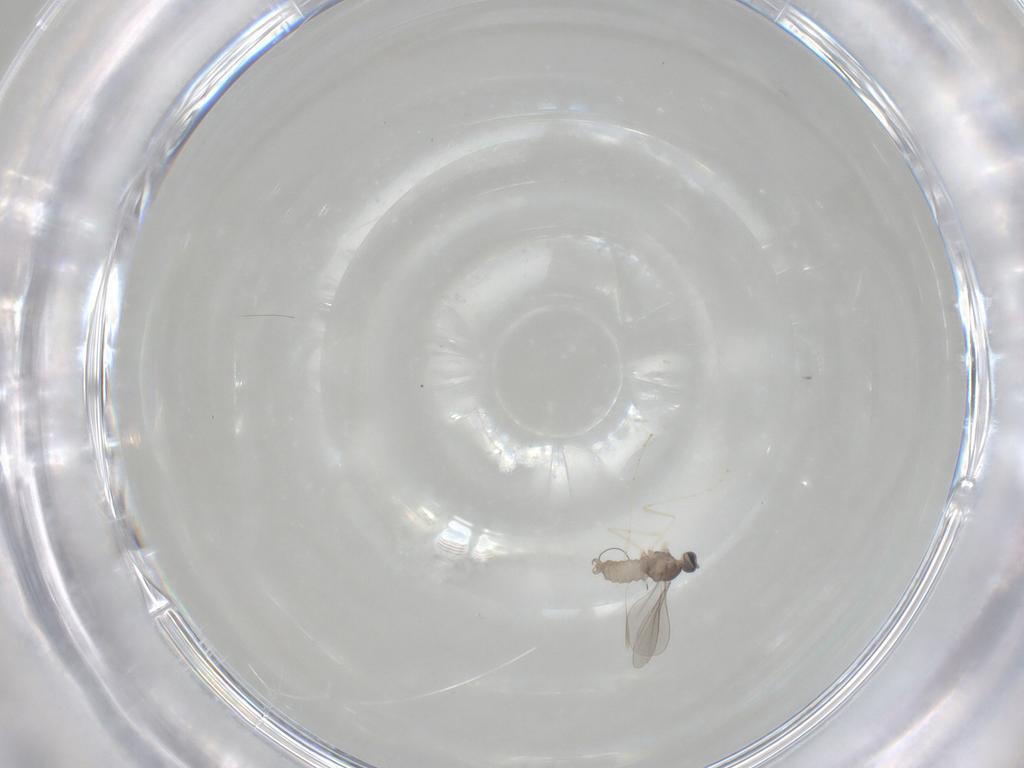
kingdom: Animalia
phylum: Arthropoda
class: Insecta
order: Diptera
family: Cecidomyiidae
